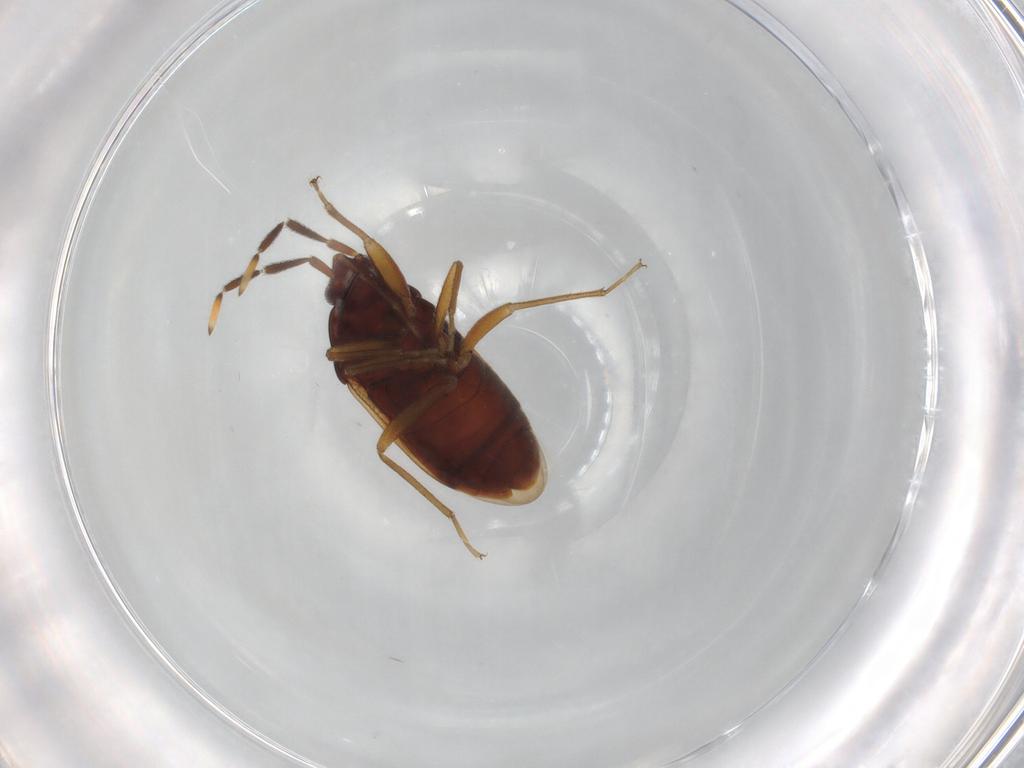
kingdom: Animalia
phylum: Arthropoda
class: Insecta
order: Hemiptera
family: Rhyparochromidae
